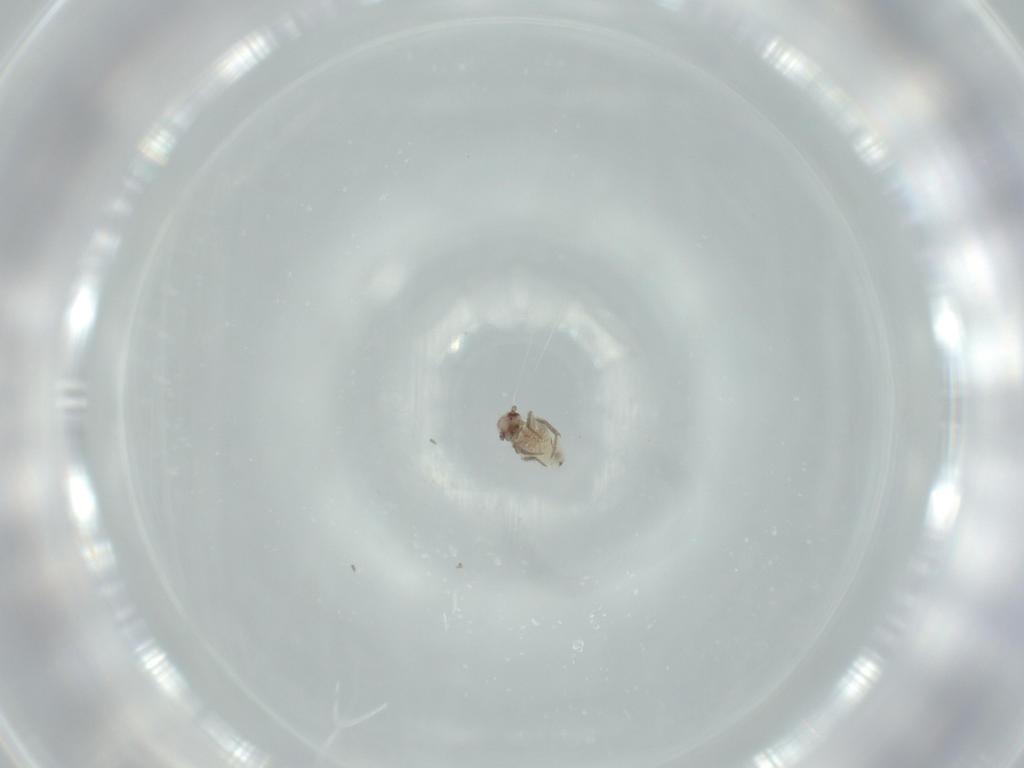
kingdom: Animalia
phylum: Arthropoda
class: Insecta
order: Psocodea
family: Lepidopsocidae
